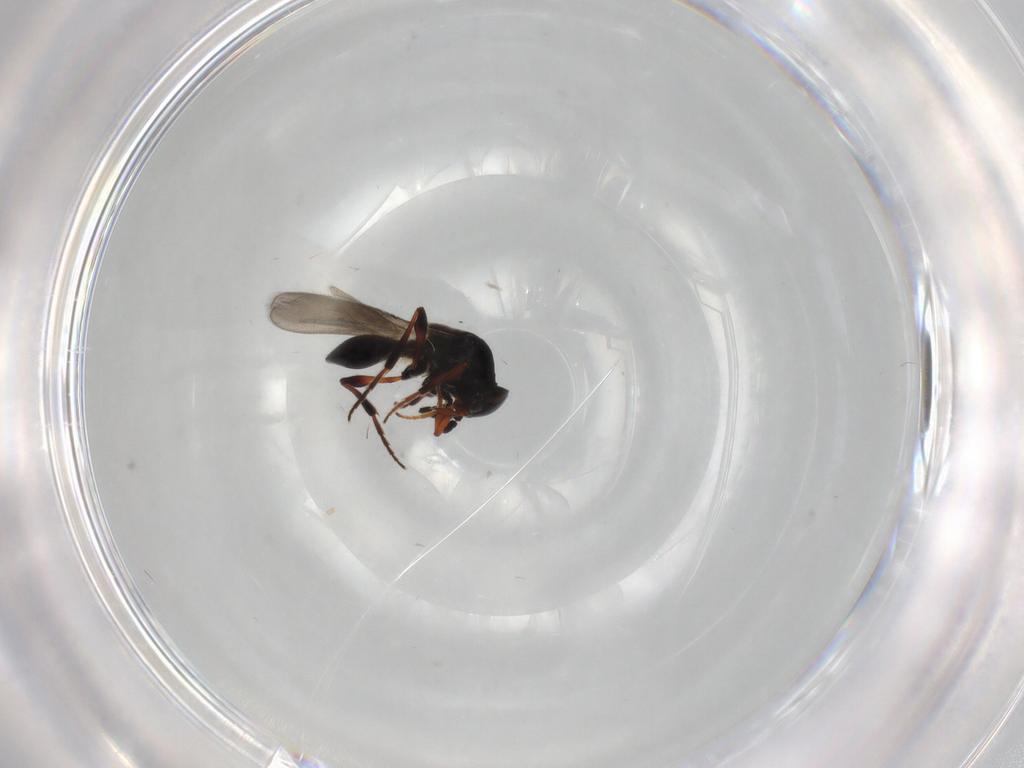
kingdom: Animalia
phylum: Arthropoda
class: Insecta
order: Hymenoptera
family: Platygastridae
